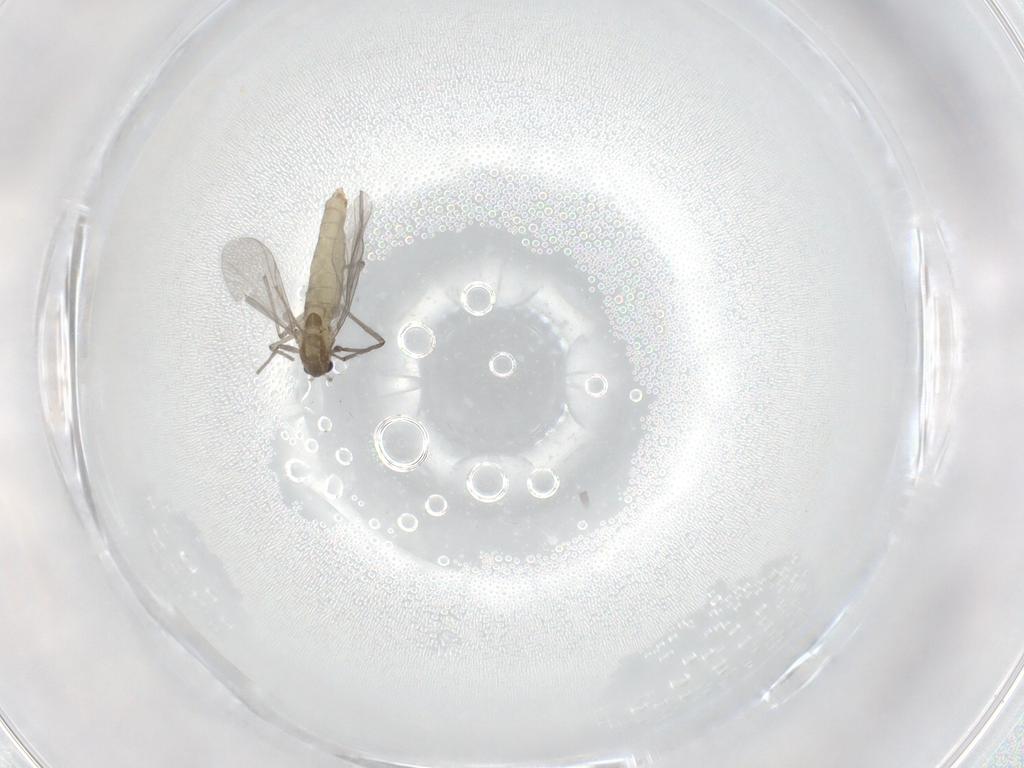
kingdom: Animalia
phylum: Arthropoda
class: Insecta
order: Diptera
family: Chironomidae
